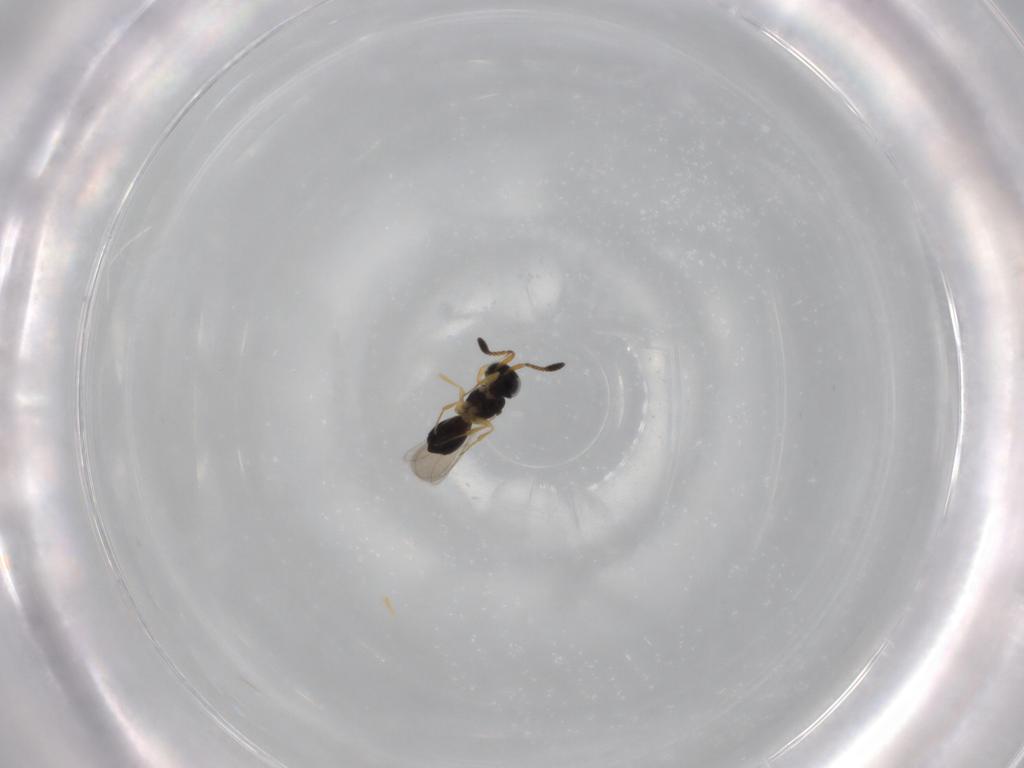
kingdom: Animalia
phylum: Arthropoda
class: Insecta
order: Hymenoptera
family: Scelionidae
